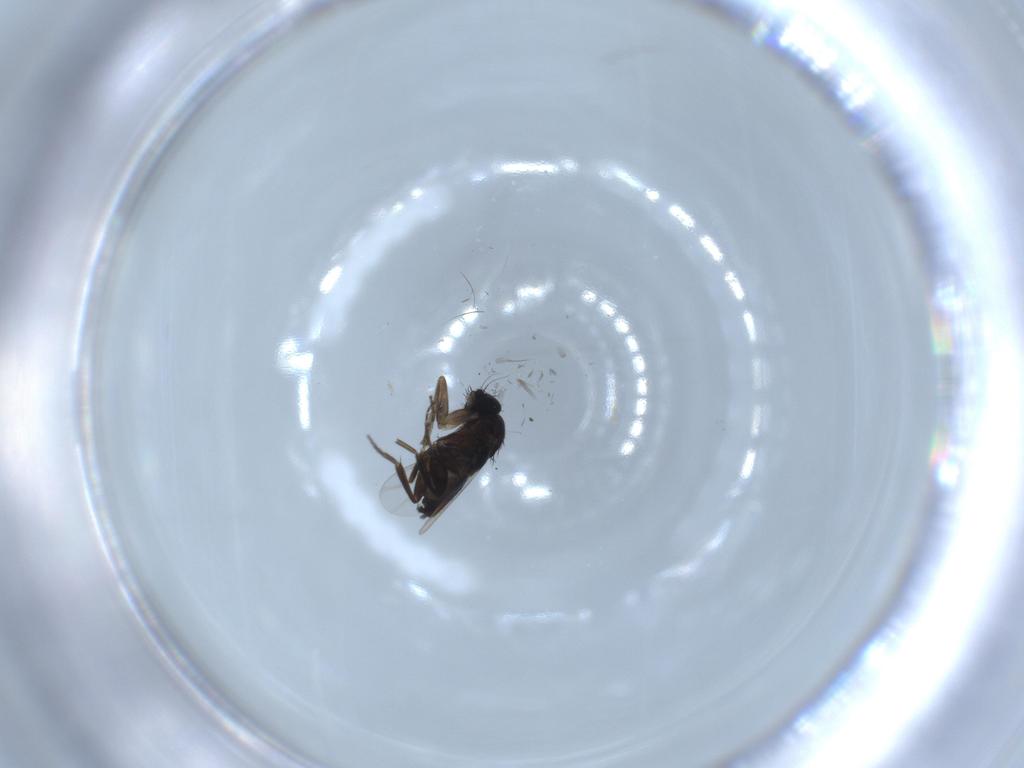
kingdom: Animalia
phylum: Arthropoda
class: Insecta
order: Diptera
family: Phoridae
